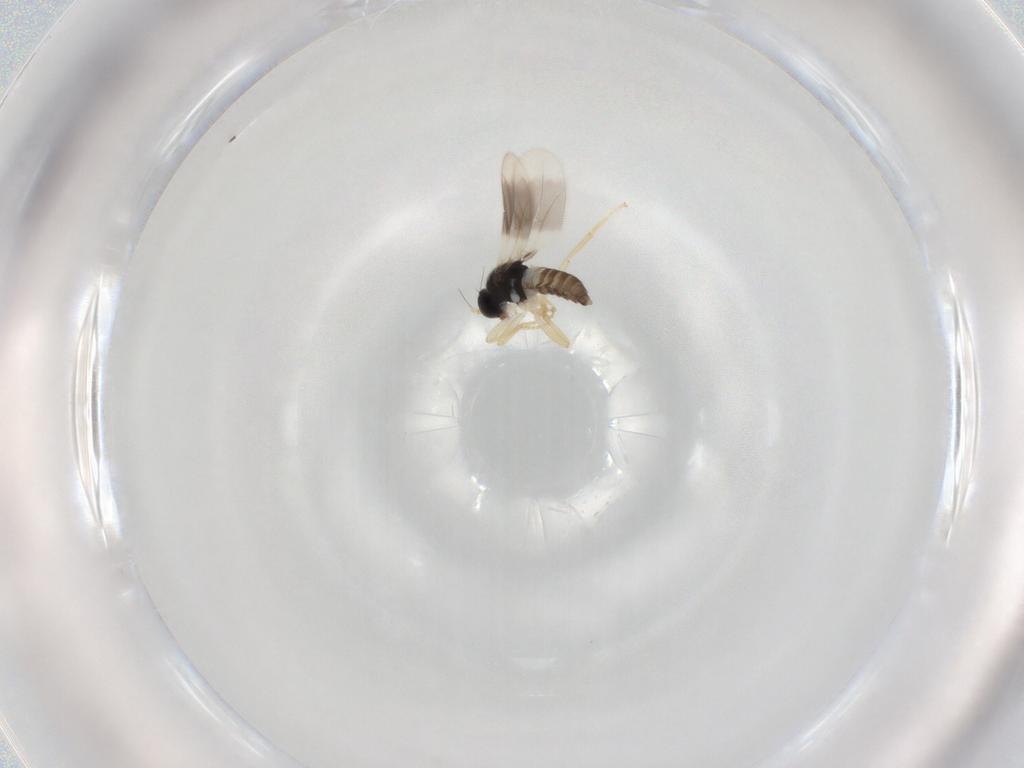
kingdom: Animalia
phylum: Arthropoda
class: Insecta
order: Diptera
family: Hybotidae
